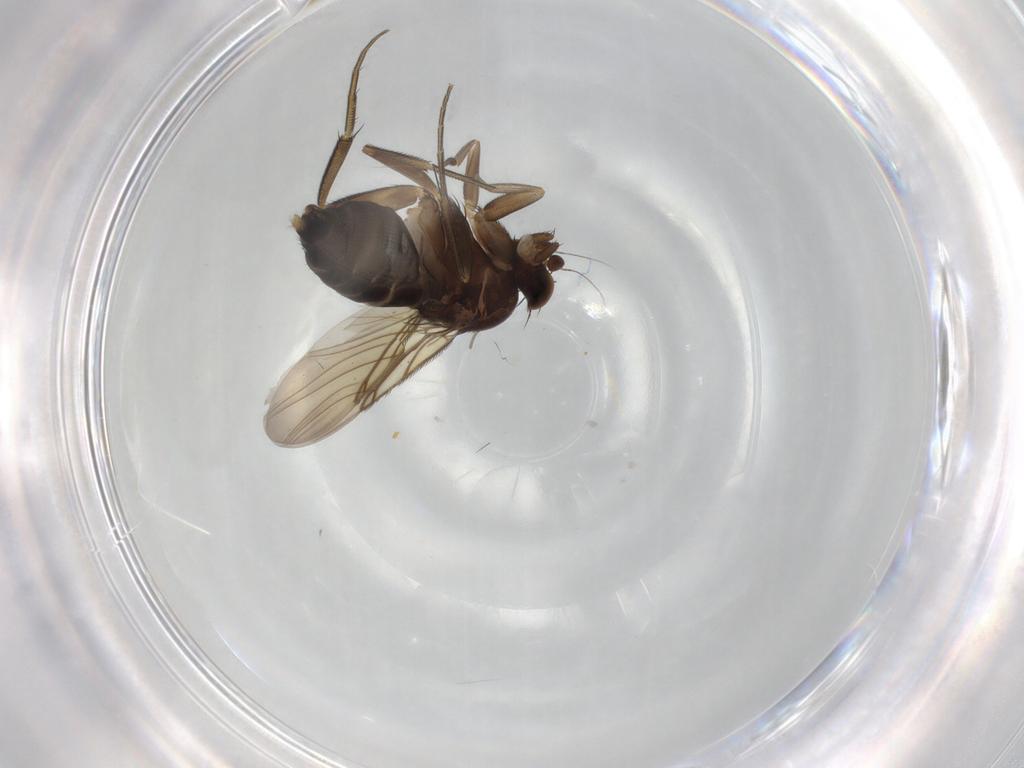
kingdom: Animalia
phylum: Arthropoda
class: Insecta
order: Diptera
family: Phoridae
